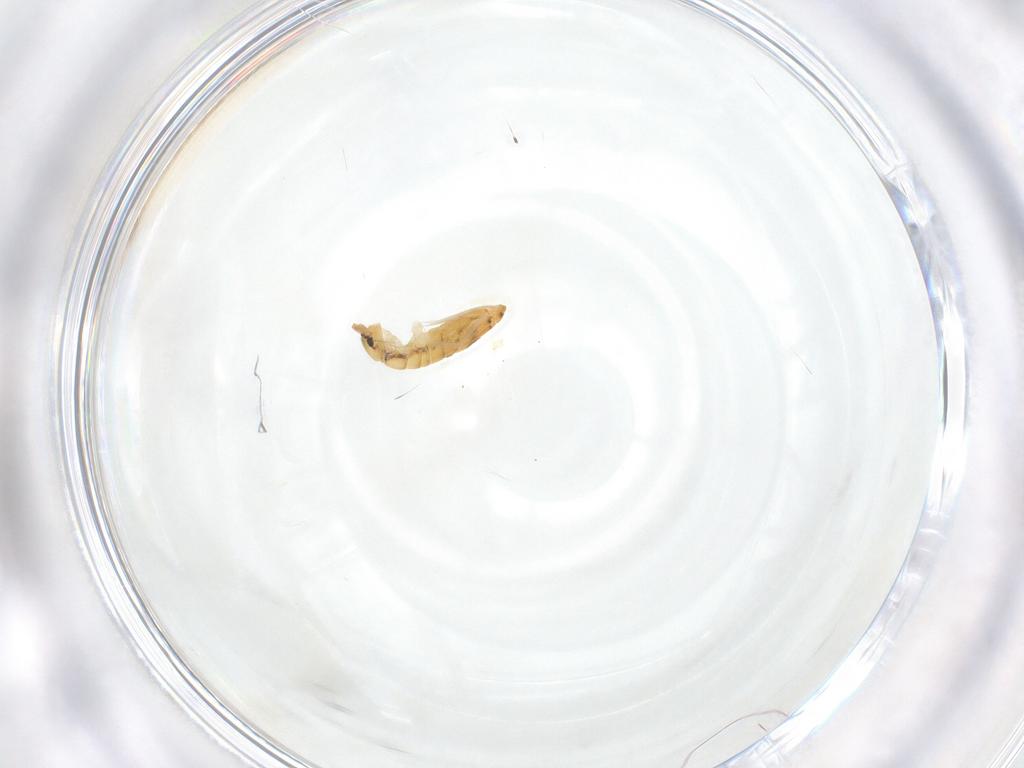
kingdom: Animalia
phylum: Arthropoda
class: Collembola
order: Entomobryomorpha
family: Entomobryidae
